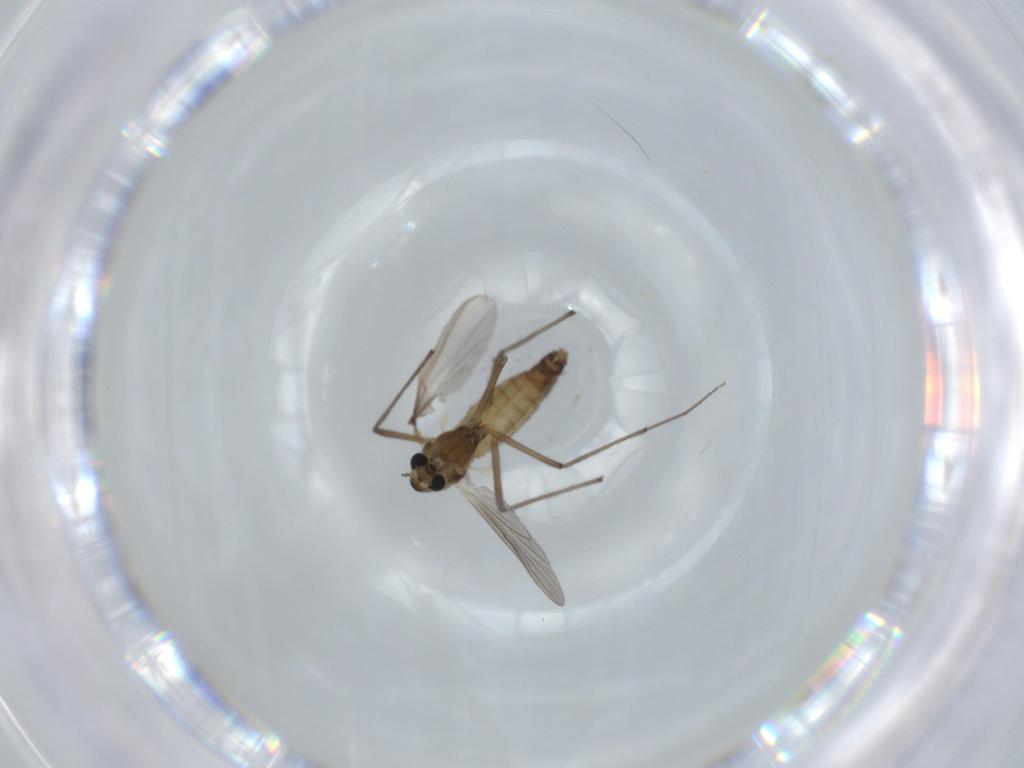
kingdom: Animalia
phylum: Arthropoda
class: Insecta
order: Diptera
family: Chironomidae
